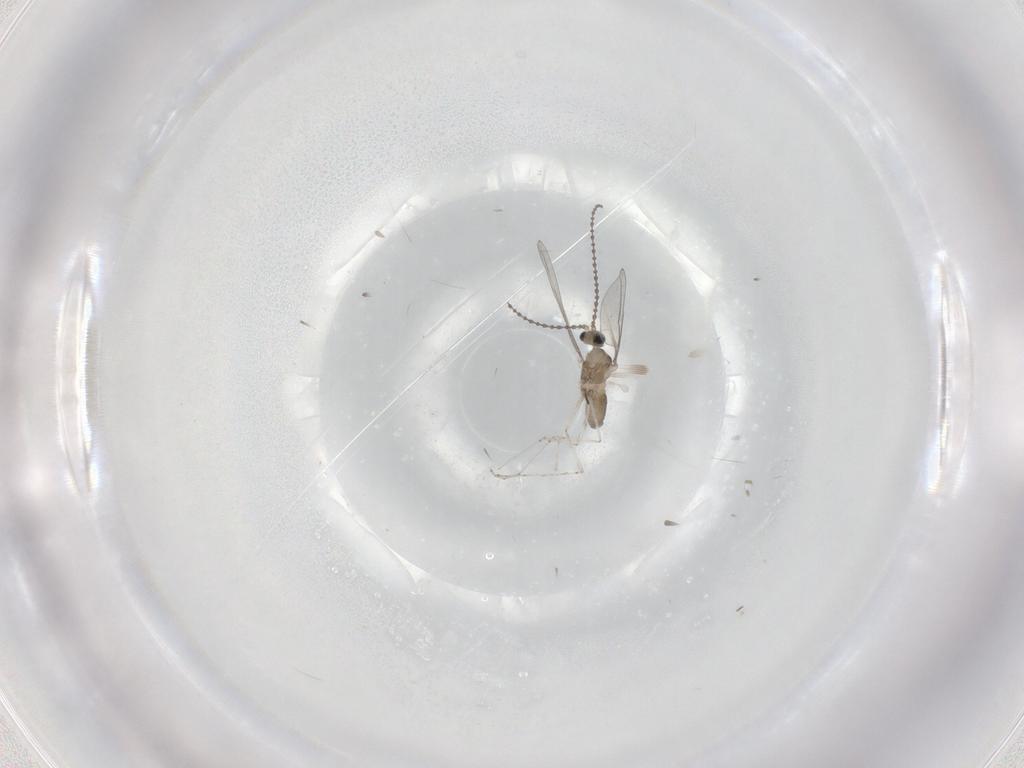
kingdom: Animalia
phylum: Arthropoda
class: Insecta
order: Diptera
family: Cecidomyiidae
